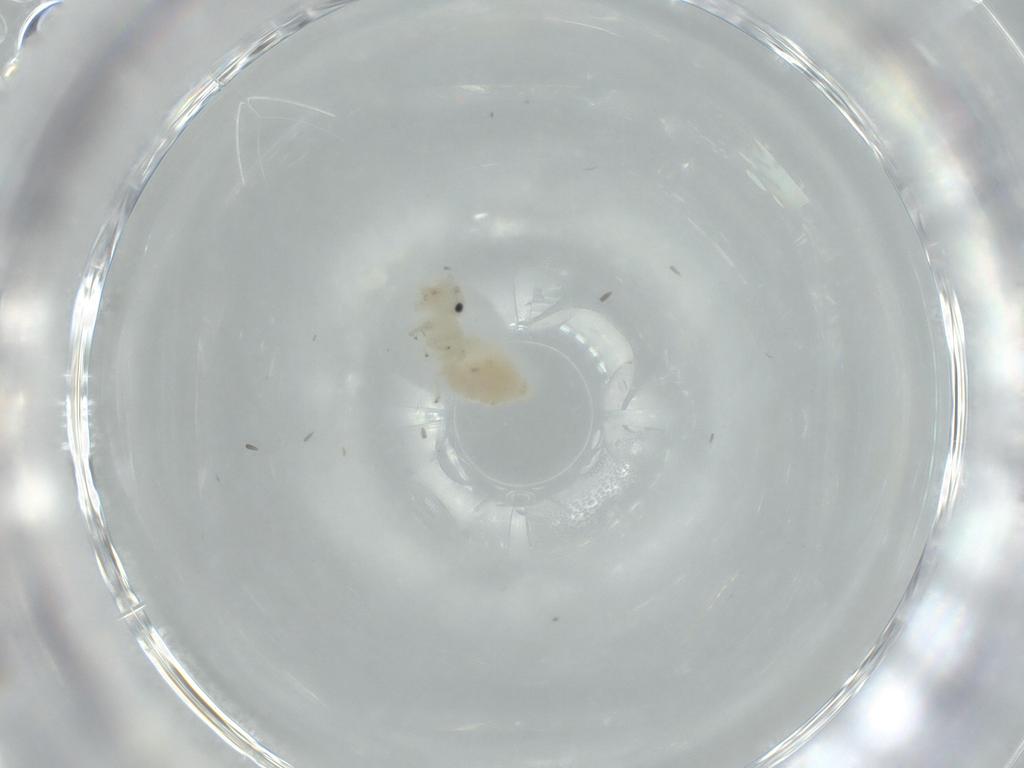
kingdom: Animalia
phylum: Arthropoda
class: Insecta
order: Psocodea
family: Caeciliusidae
